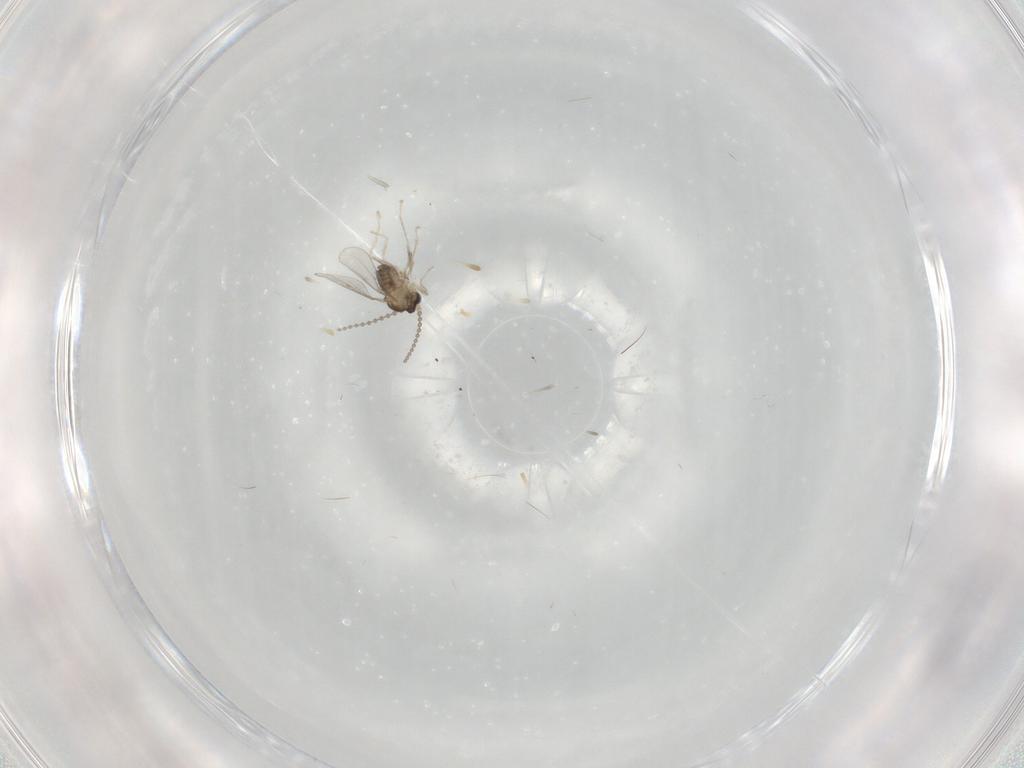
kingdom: Animalia
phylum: Arthropoda
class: Insecta
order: Diptera
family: Cecidomyiidae
